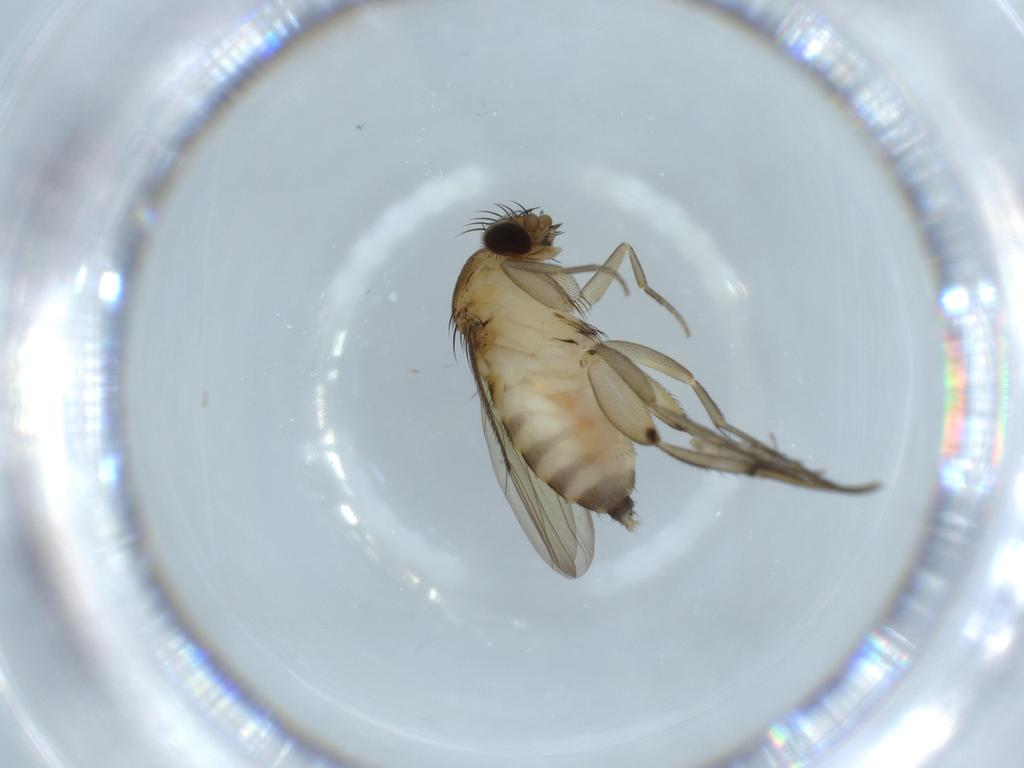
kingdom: Animalia
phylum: Arthropoda
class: Insecta
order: Diptera
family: Phoridae
